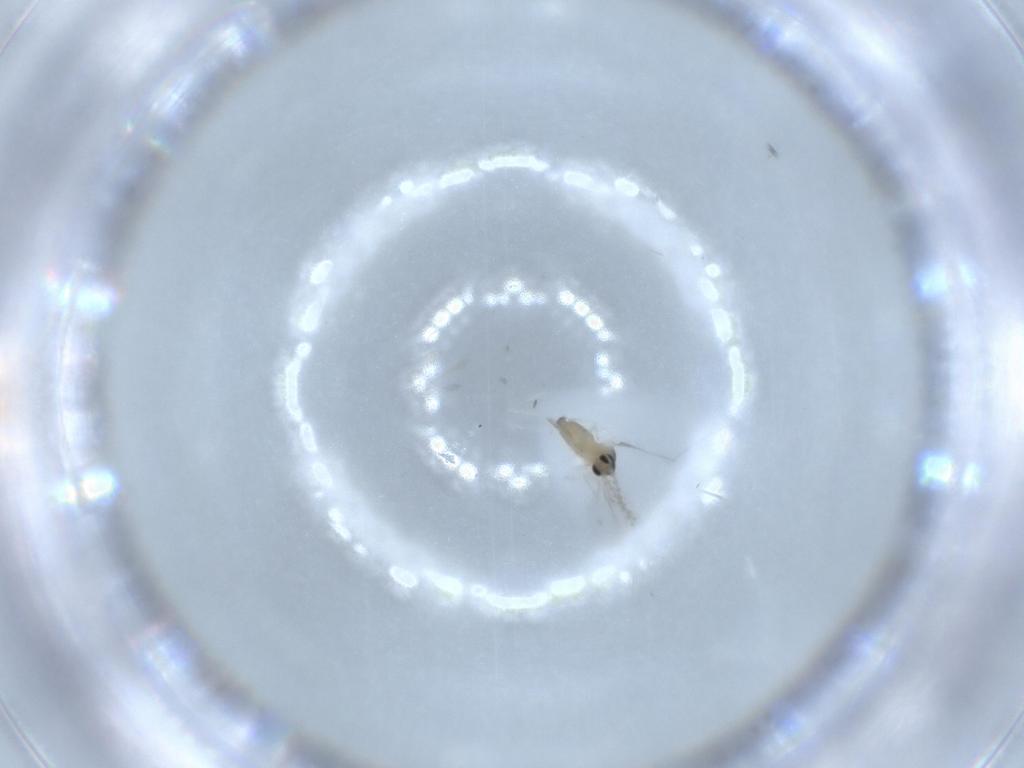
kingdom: Animalia
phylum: Arthropoda
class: Insecta
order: Diptera
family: Cecidomyiidae
